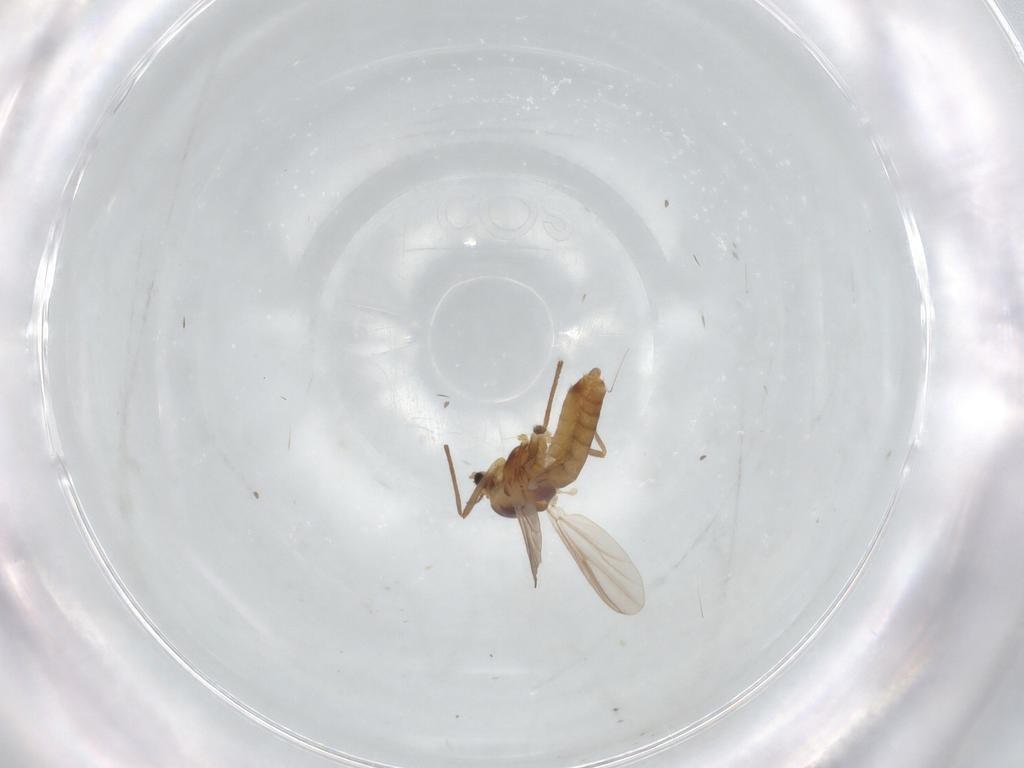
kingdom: Animalia
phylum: Arthropoda
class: Insecta
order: Diptera
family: Chironomidae
